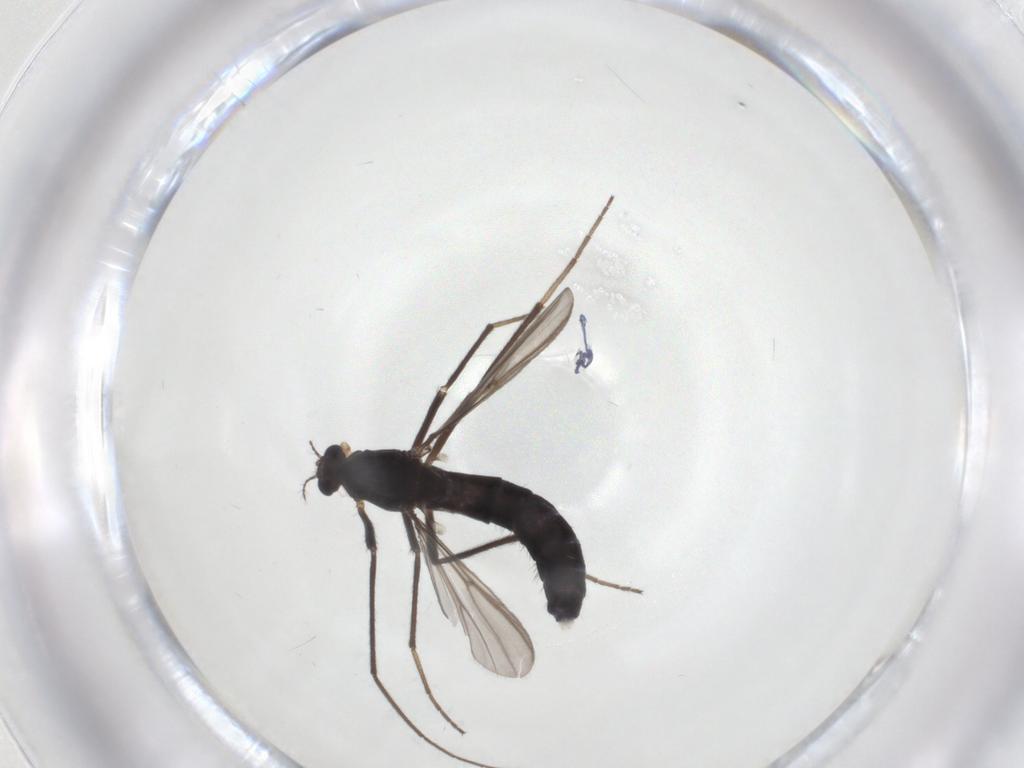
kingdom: Animalia
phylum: Arthropoda
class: Insecta
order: Diptera
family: Chironomidae
